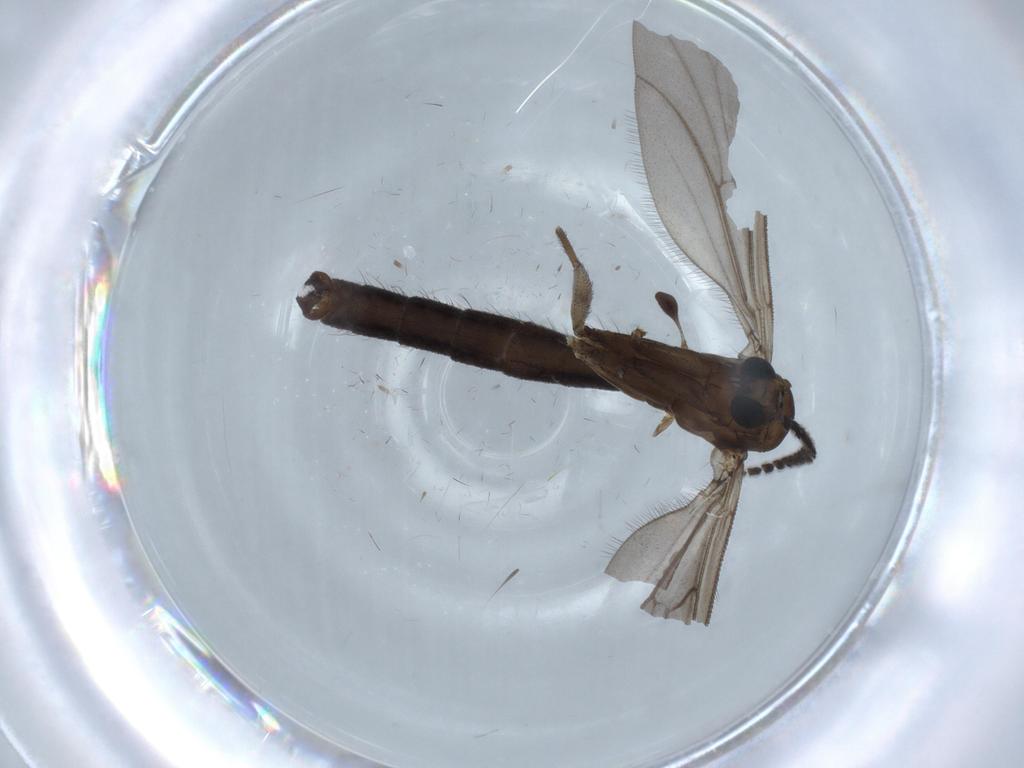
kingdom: Animalia
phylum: Arthropoda
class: Insecta
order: Diptera
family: Ditomyiidae
